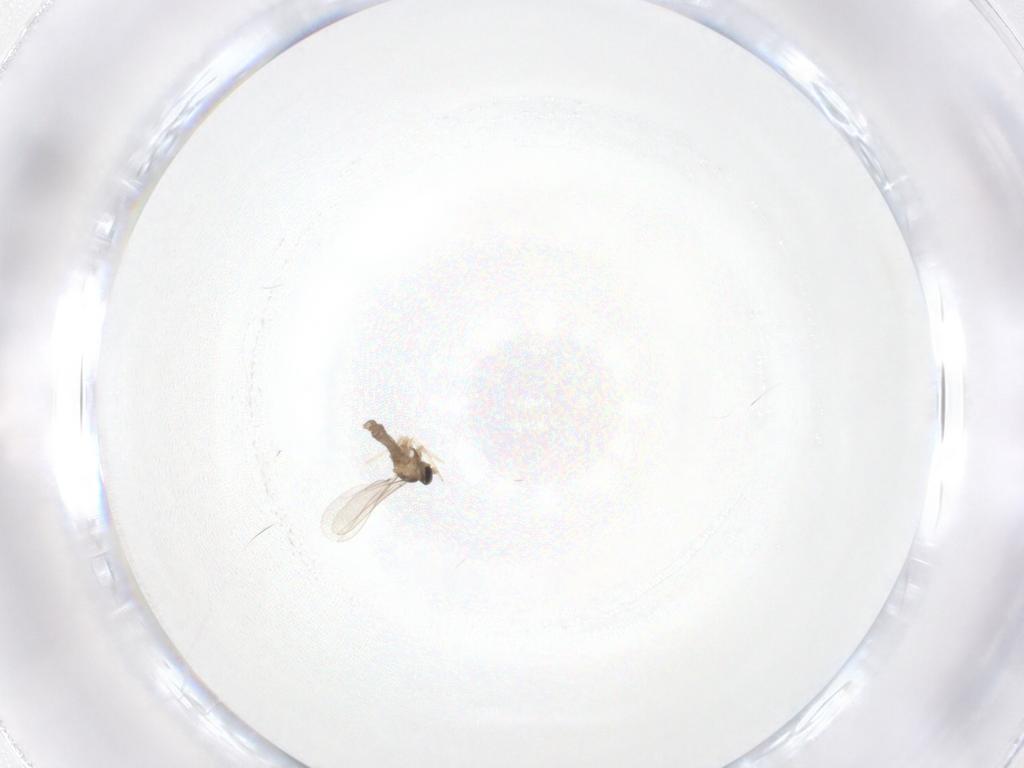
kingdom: Animalia
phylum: Arthropoda
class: Insecta
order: Diptera
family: Cecidomyiidae
